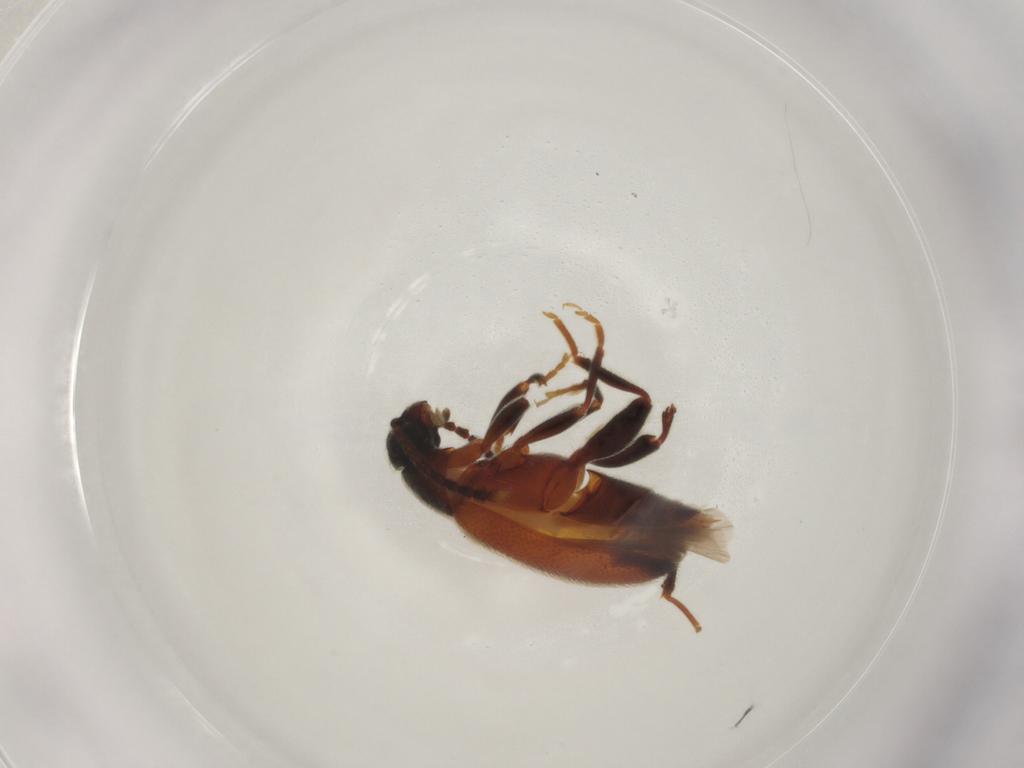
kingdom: Animalia
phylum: Arthropoda
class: Insecta
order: Coleoptera
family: Aderidae
